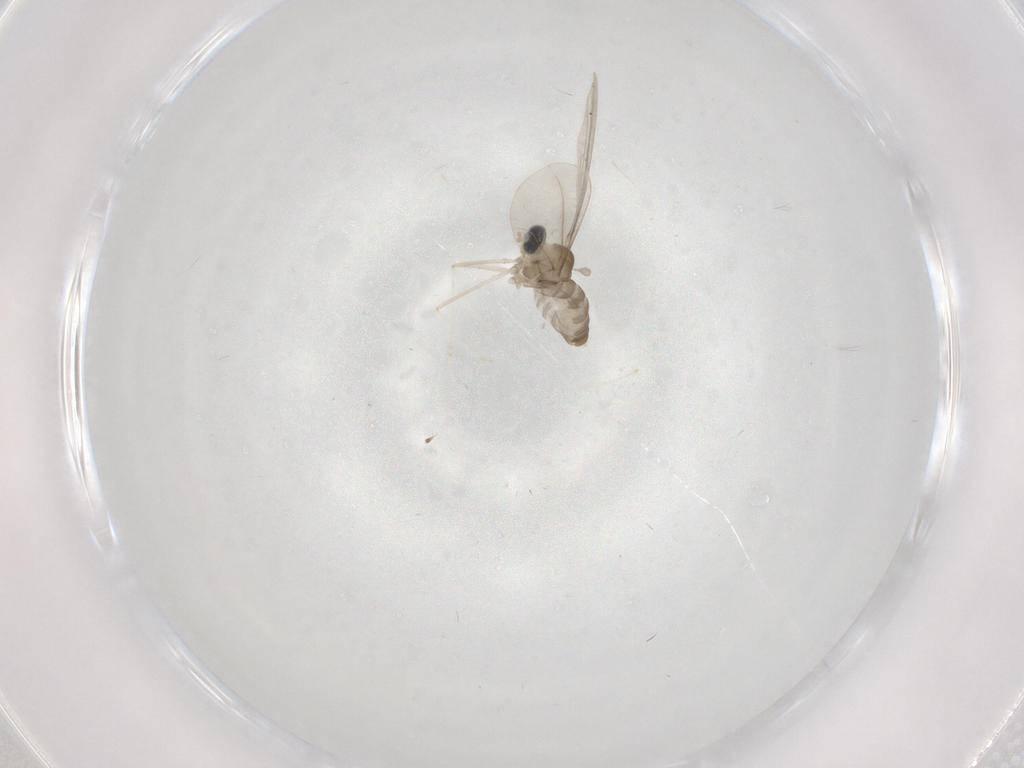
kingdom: Animalia
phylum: Arthropoda
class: Insecta
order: Diptera
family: Cecidomyiidae
